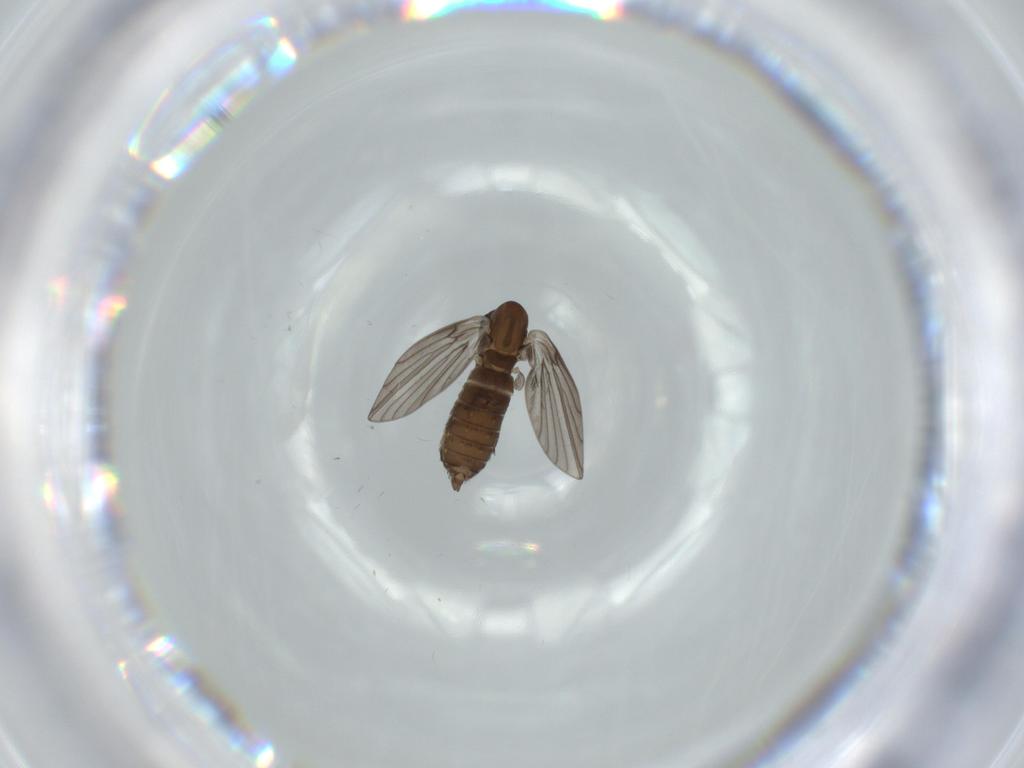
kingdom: Animalia
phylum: Arthropoda
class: Insecta
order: Diptera
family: Psychodidae
